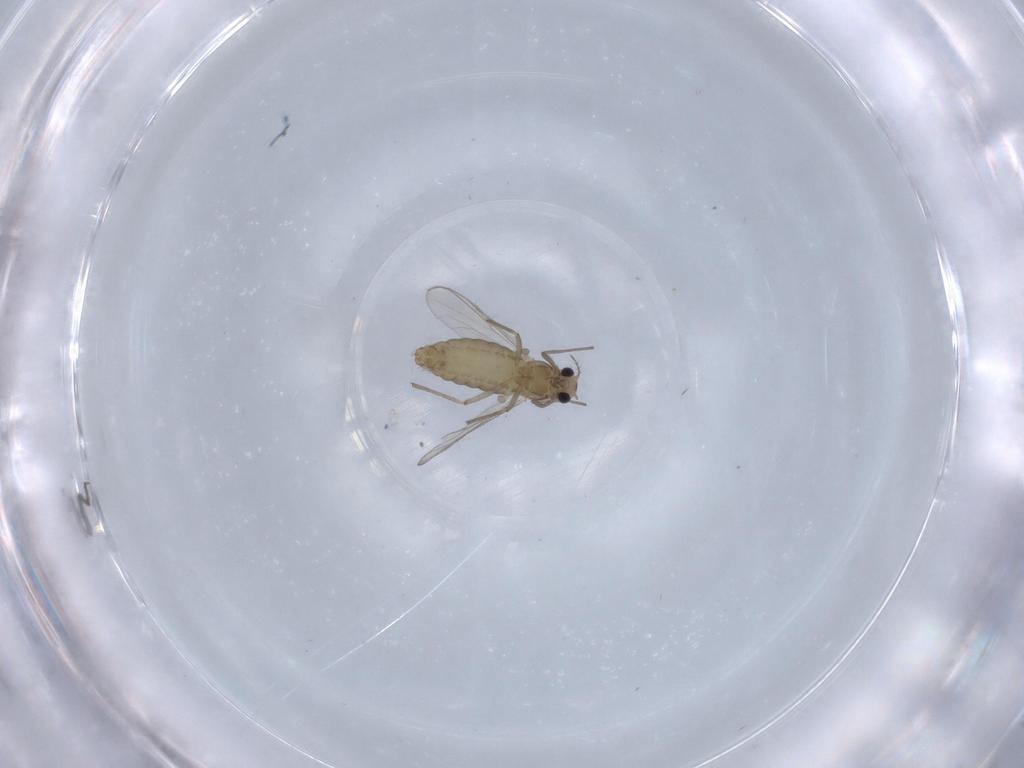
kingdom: Animalia
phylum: Arthropoda
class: Insecta
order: Diptera
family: Chironomidae
